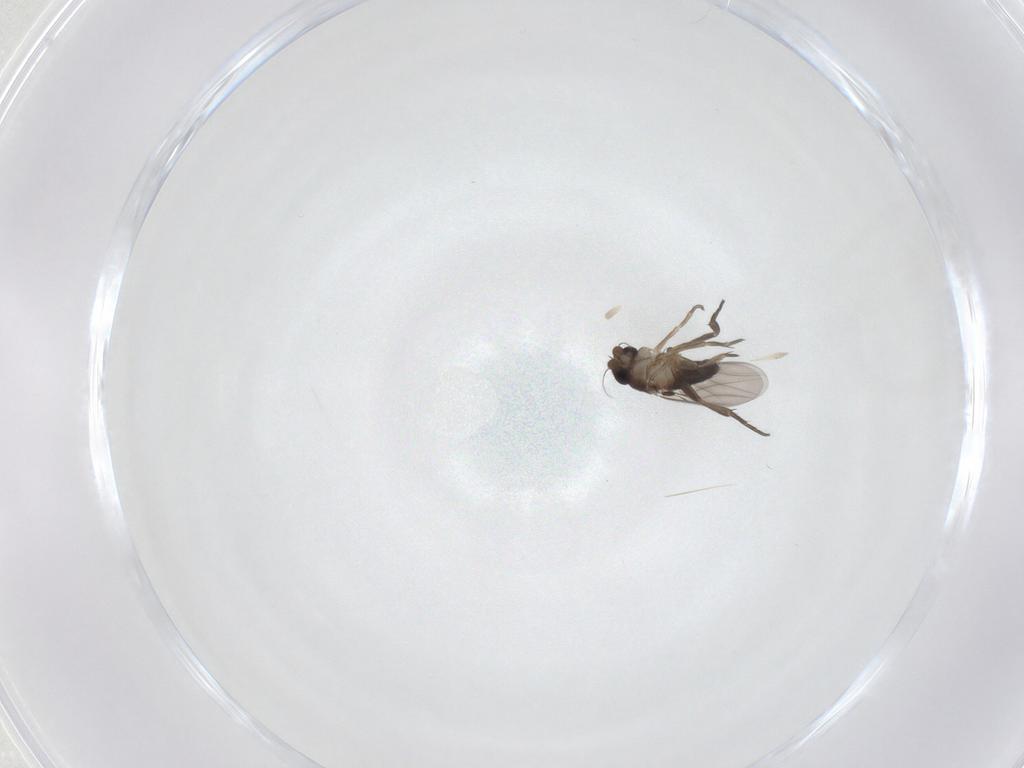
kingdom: Animalia
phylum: Arthropoda
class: Insecta
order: Diptera
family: Phoridae
